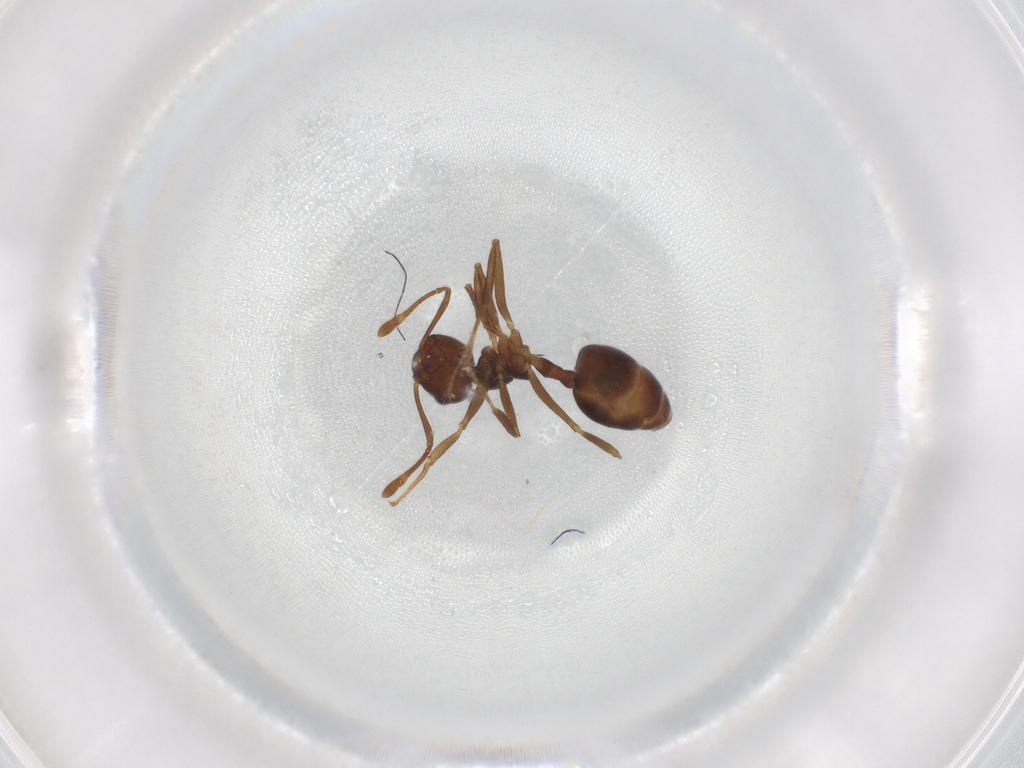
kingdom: Animalia
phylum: Arthropoda
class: Insecta
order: Hymenoptera
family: Formicidae
